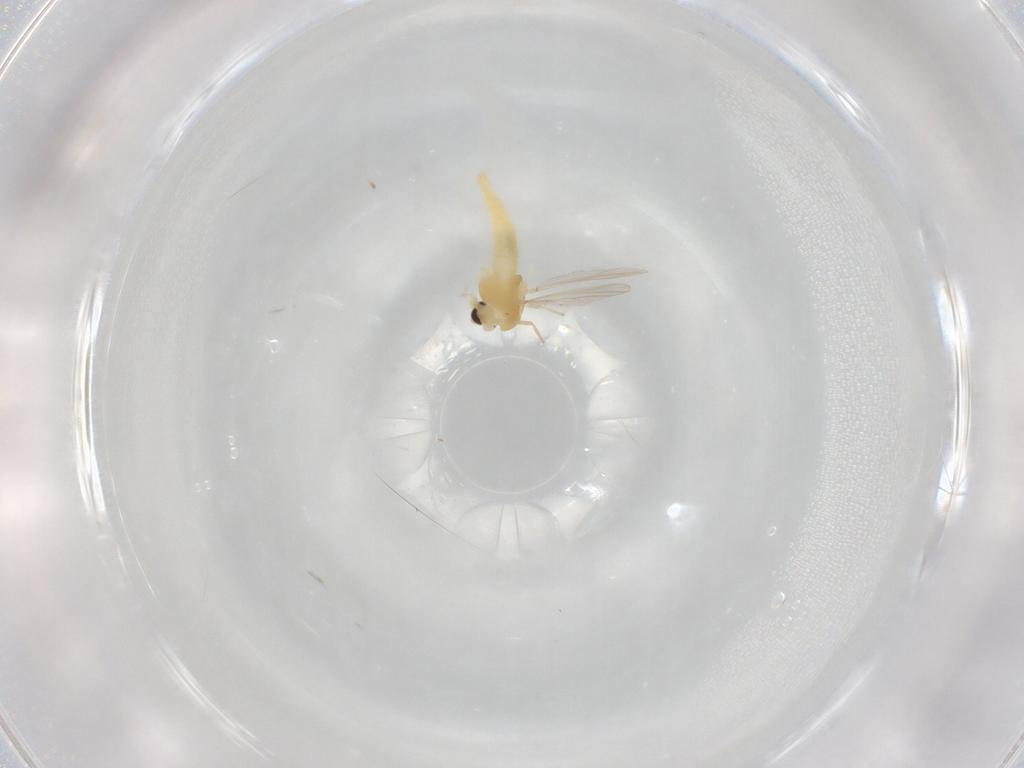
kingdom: Animalia
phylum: Arthropoda
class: Insecta
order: Diptera
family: Chironomidae
